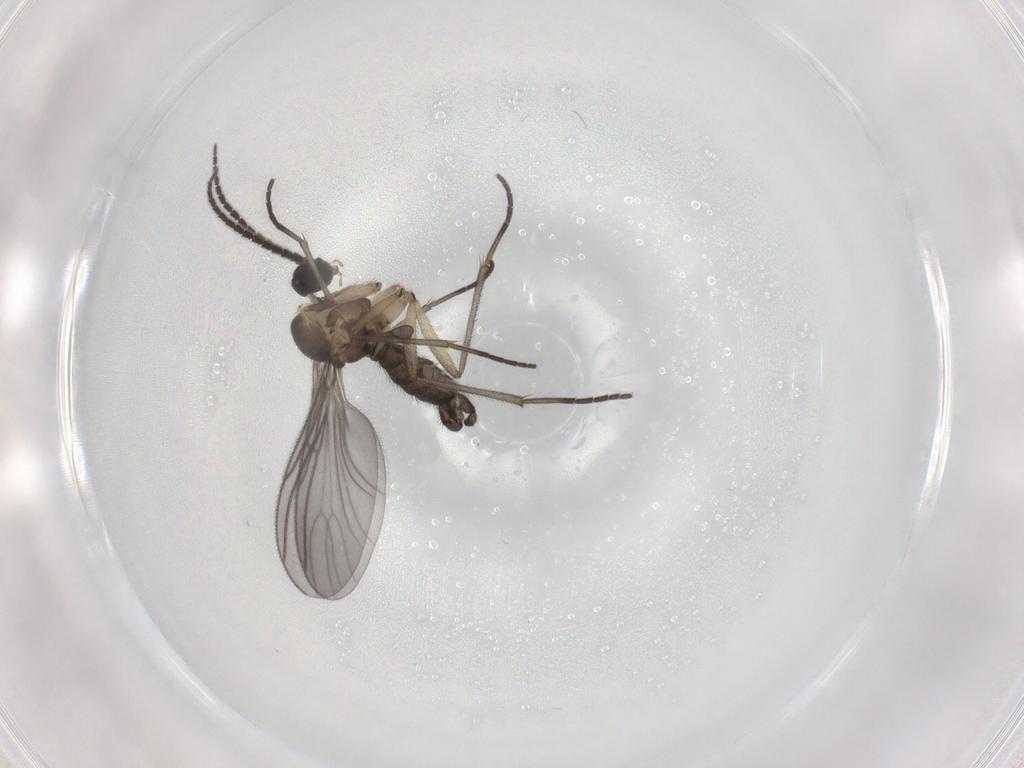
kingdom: Animalia
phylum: Arthropoda
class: Insecta
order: Diptera
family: Sciaridae
